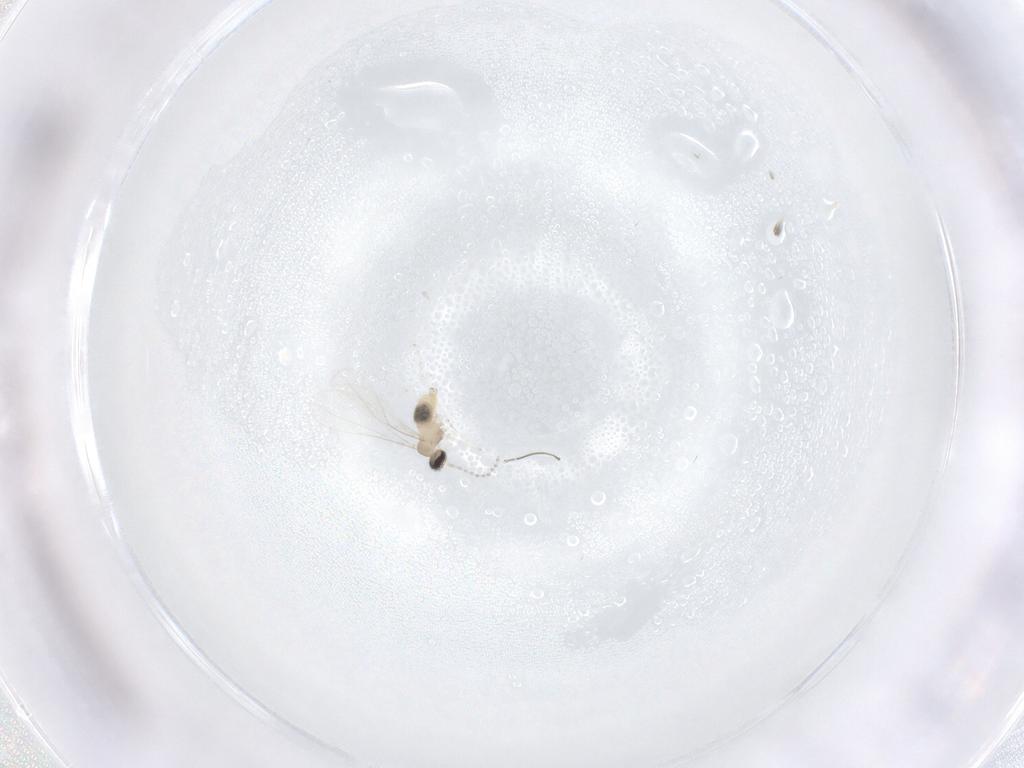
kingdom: Animalia
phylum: Arthropoda
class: Insecta
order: Diptera
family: Cecidomyiidae
